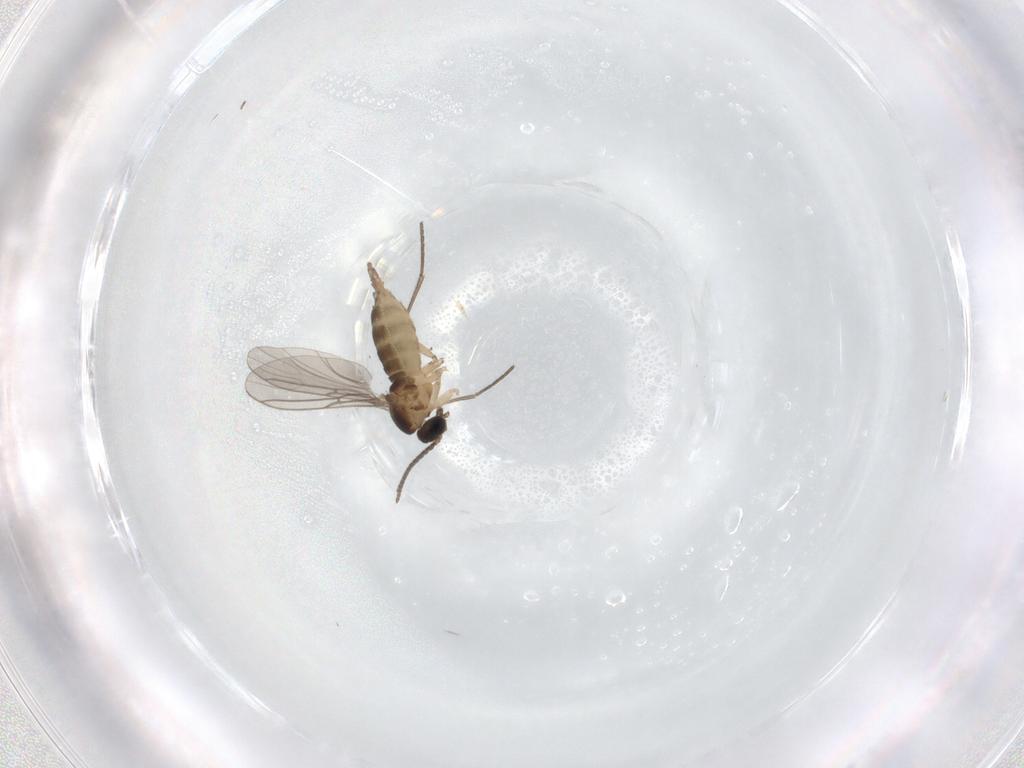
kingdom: Animalia
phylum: Arthropoda
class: Insecta
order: Diptera
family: Sciaridae
